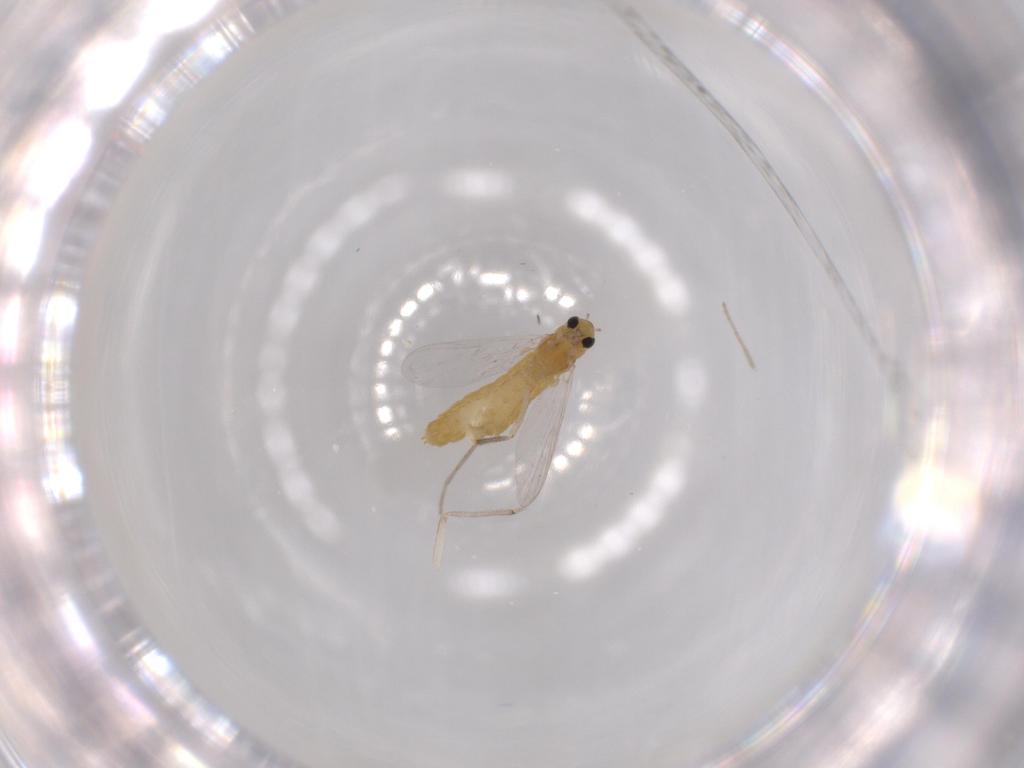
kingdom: Animalia
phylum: Arthropoda
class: Insecta
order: Diptera
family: Chironomidae
